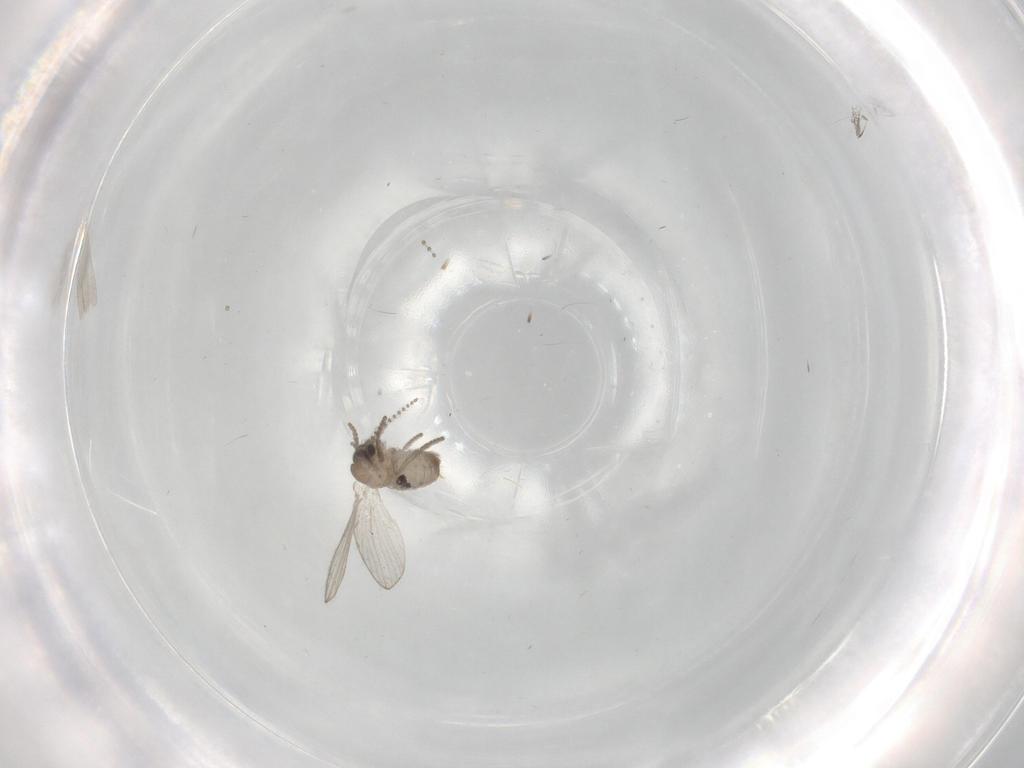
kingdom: Animalia
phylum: Arthropoda
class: Insecta
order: Diptera
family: Psychodidae
